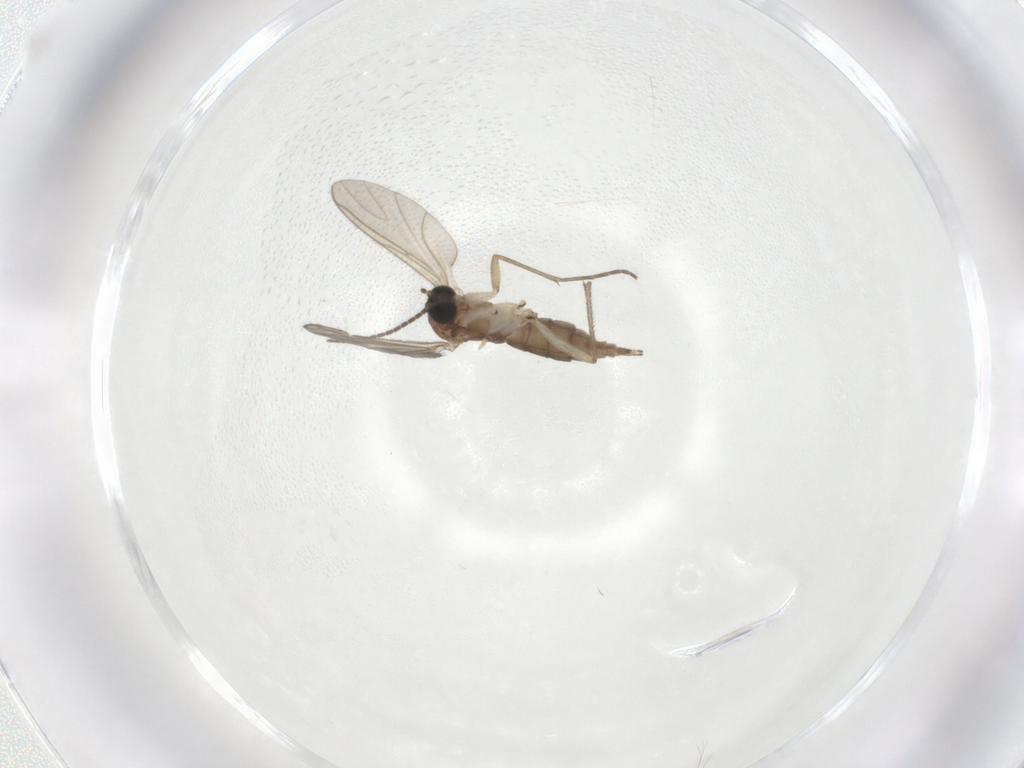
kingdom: Animalia
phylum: Arthropoda
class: Insecta
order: Diptera
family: Sciaridae
